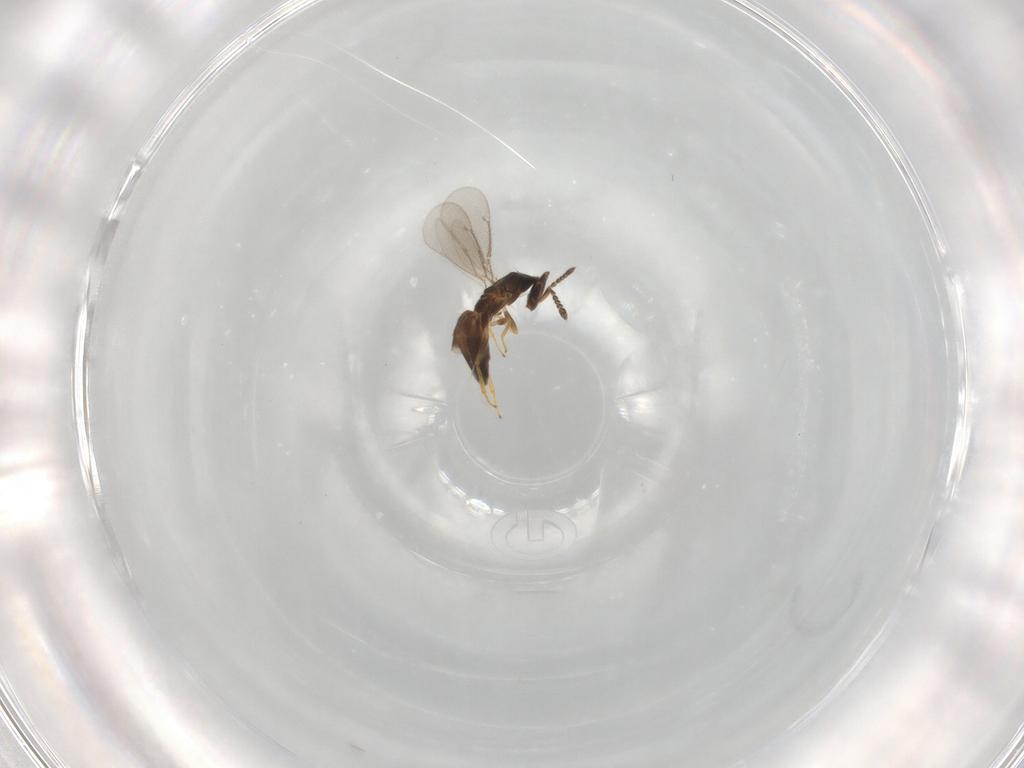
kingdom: Animalia
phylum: Arthropoda
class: Insecta
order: Hymenoptera
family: Eulophidae
